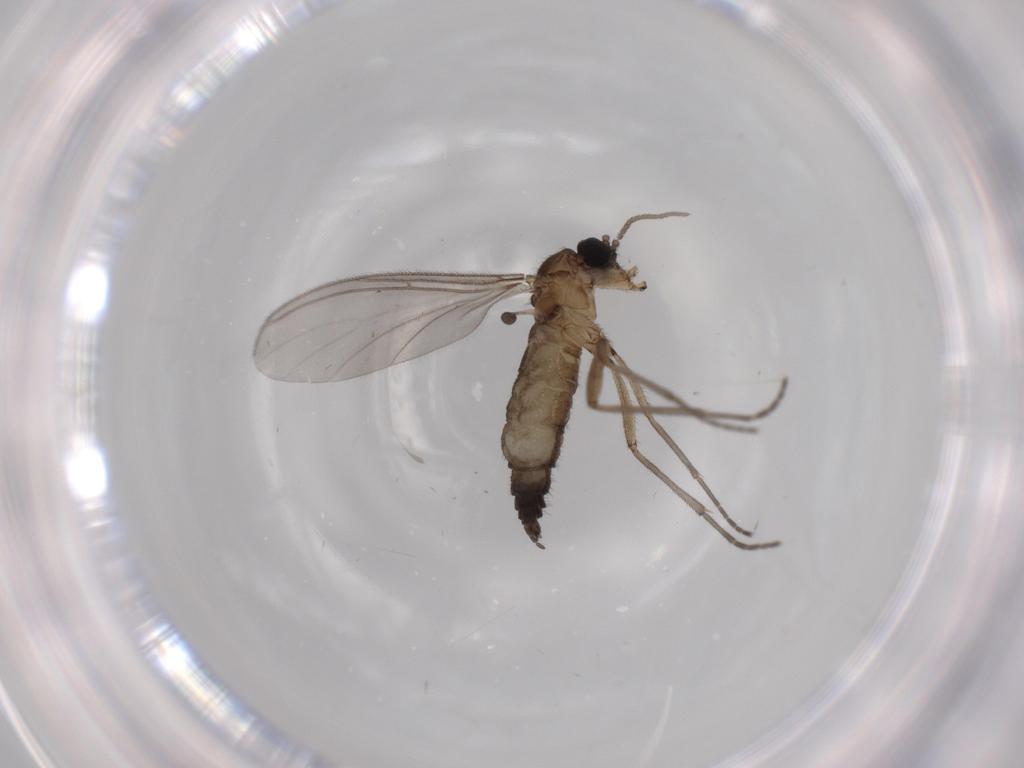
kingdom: Animalia
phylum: Arthropoda
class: Insecta
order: Diptera
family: Sciaridae
